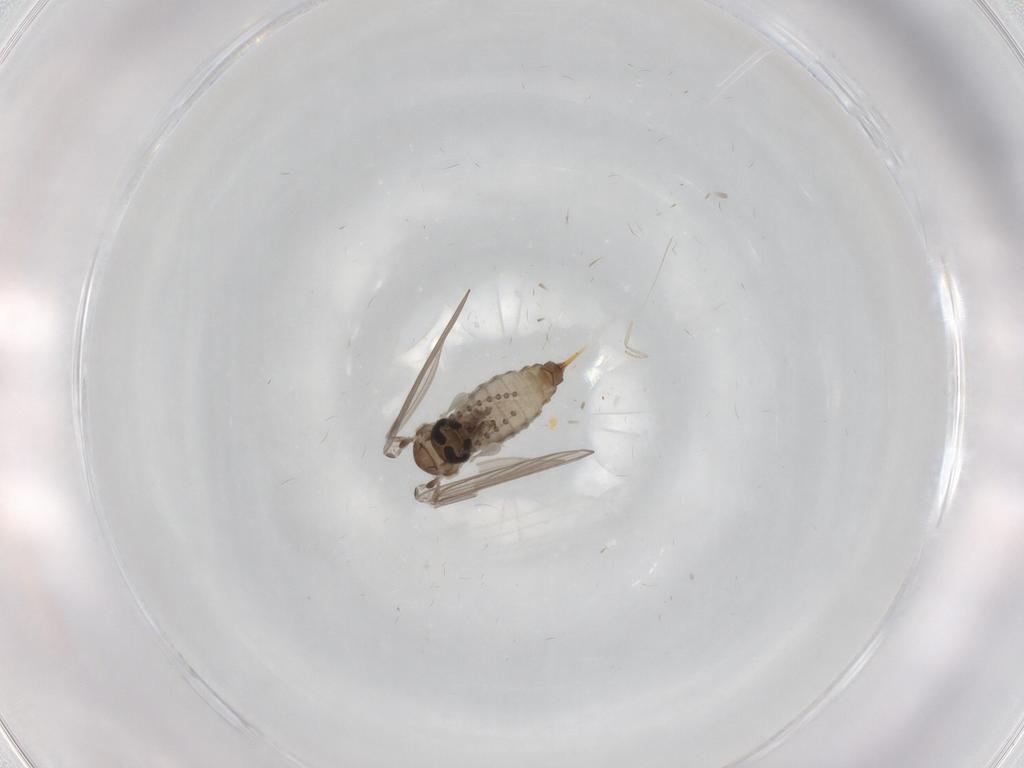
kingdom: Animalia
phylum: Arthropoda
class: Insecta
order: Diptera
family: Psychodidae
